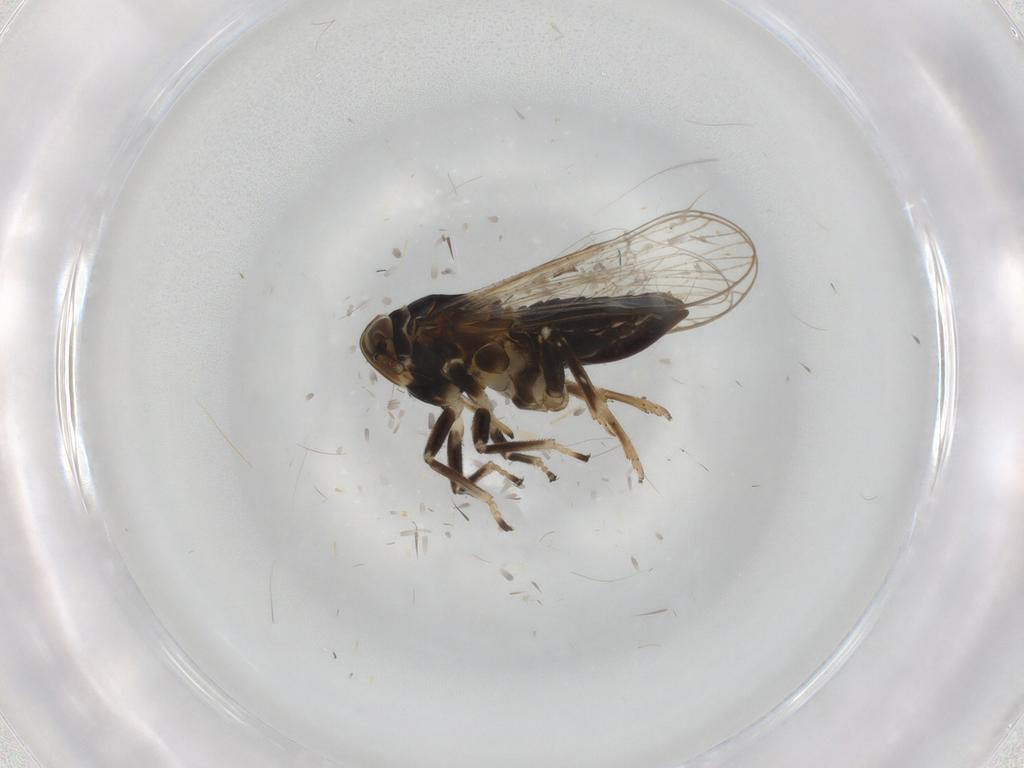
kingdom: Animalia
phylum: Arthropoda
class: Insecta
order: Hemiptera
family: Delphacidae
